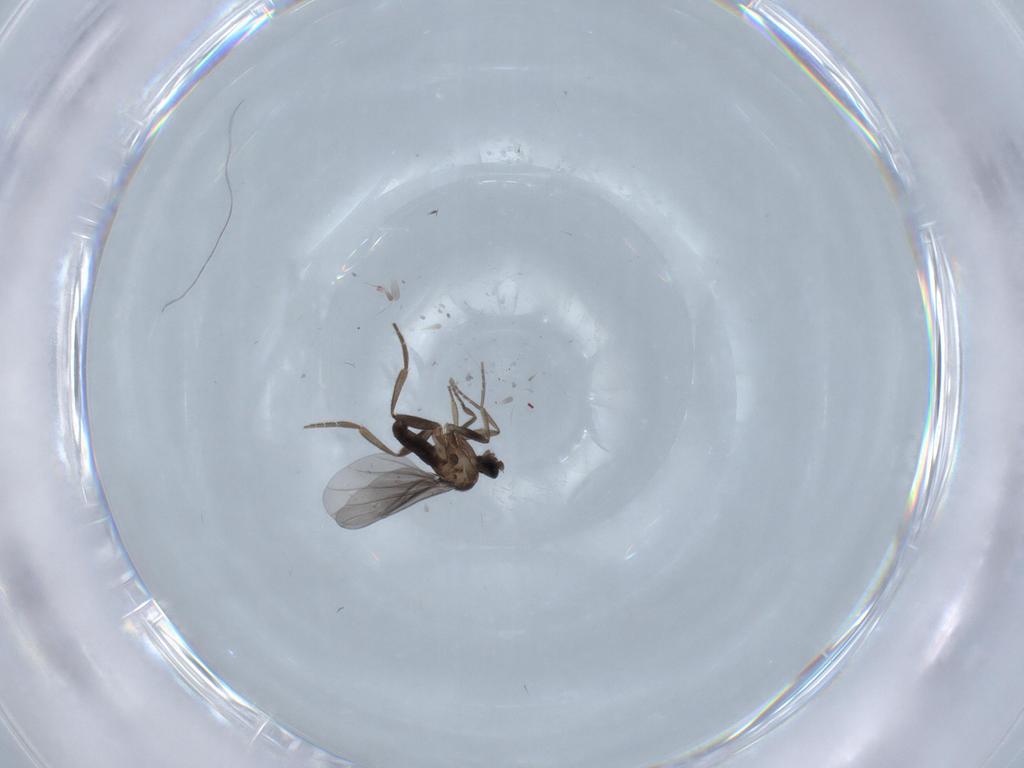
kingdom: Animalia
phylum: Arthropoda
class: Insecta
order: Diptera
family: Phoridae
